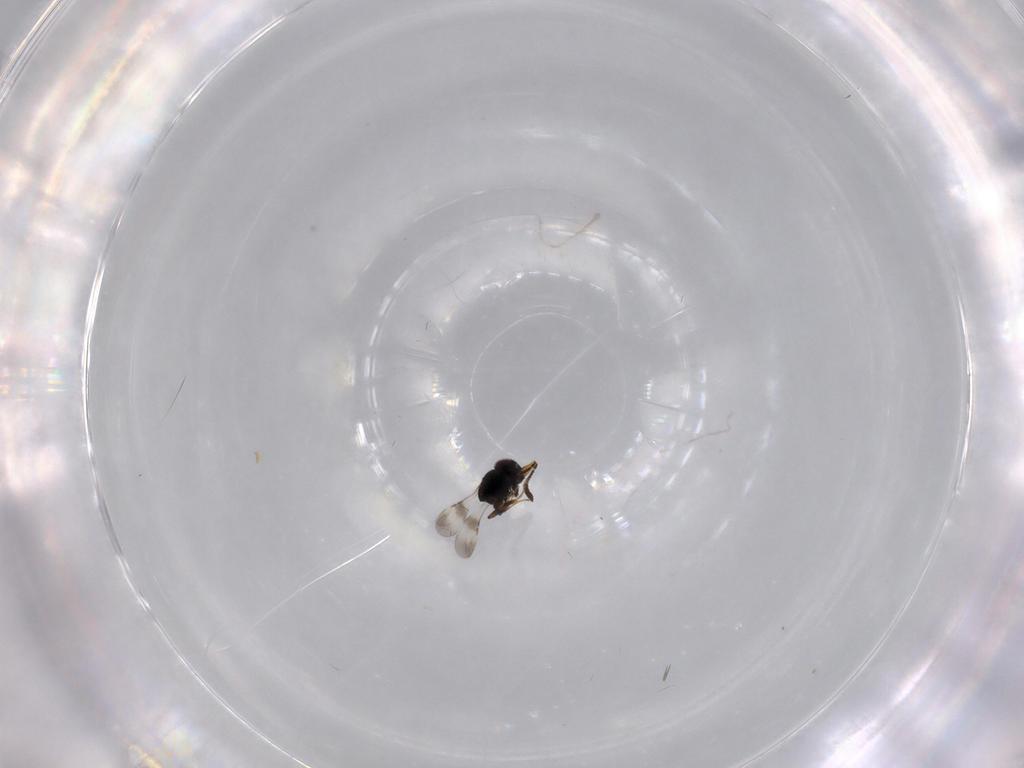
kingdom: Animalia
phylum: Arthropoda
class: Insecta
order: Hymenoptera
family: Ceraphronidae
